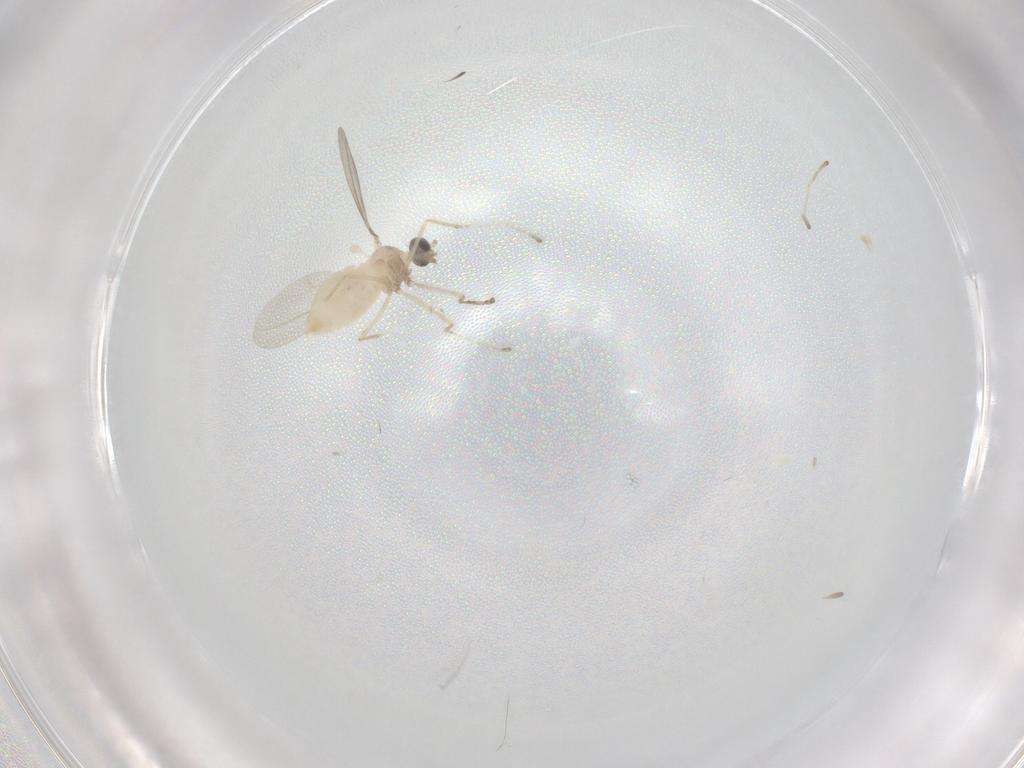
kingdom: Animalia
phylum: Arthropoda
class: Insecta
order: Diptera
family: Cecidomyiidae
